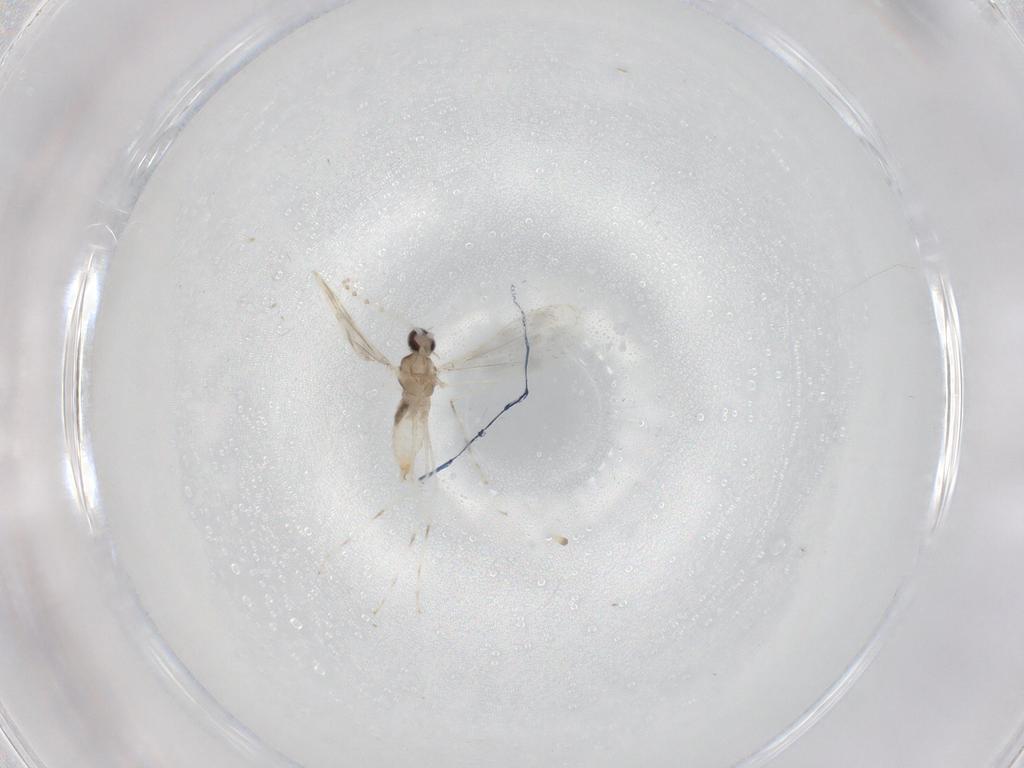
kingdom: Animalia
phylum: Arthropoda
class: Insecta
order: Diptera
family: Cecidomyiidae
